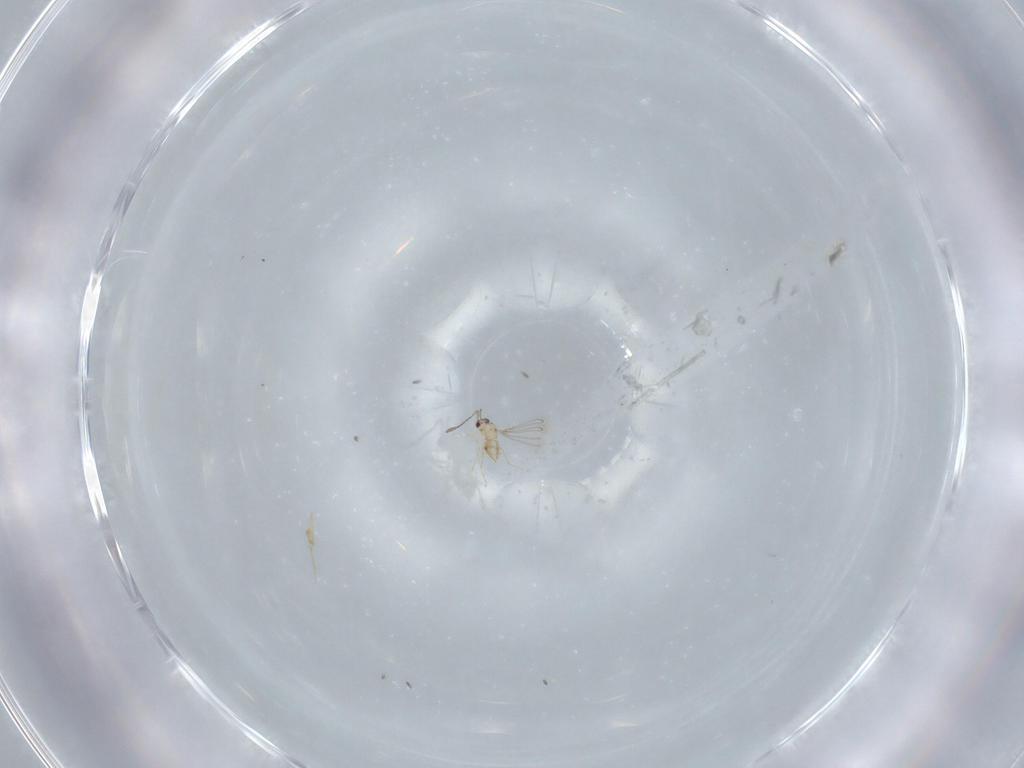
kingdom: Animalia
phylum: Arthropoda
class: Insecta
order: Hymenoptera
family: Mymaridae
